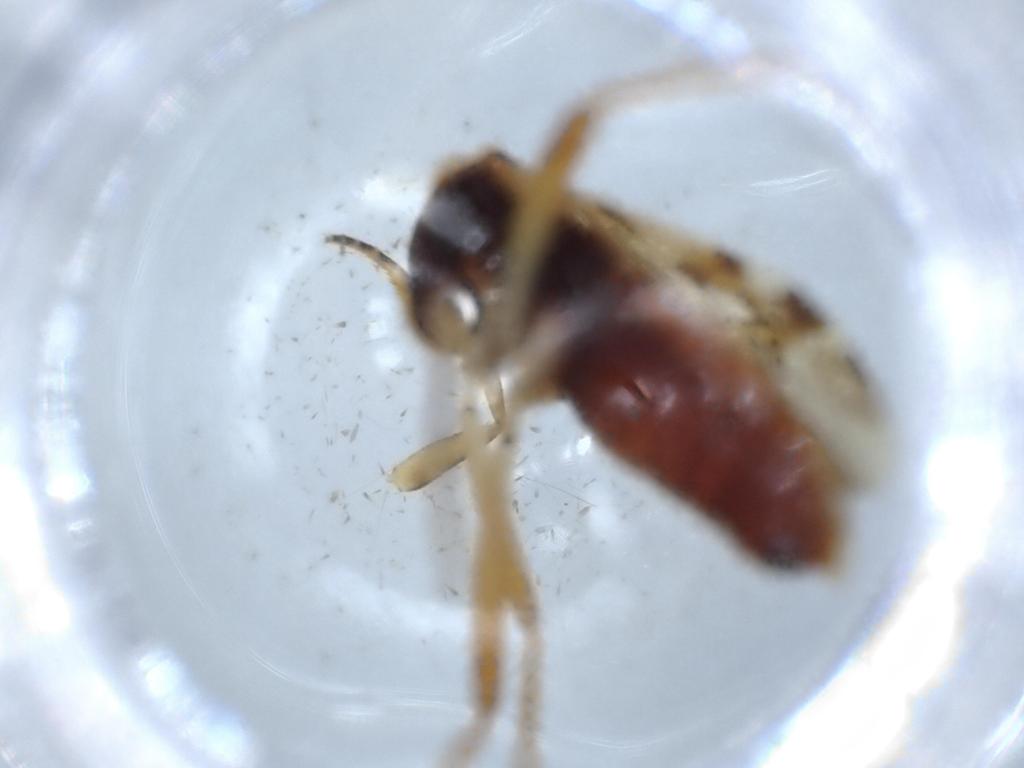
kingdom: Animalia
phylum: Arthropoda
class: Insecta
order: Hemiptera
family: Rhyparochromidae
